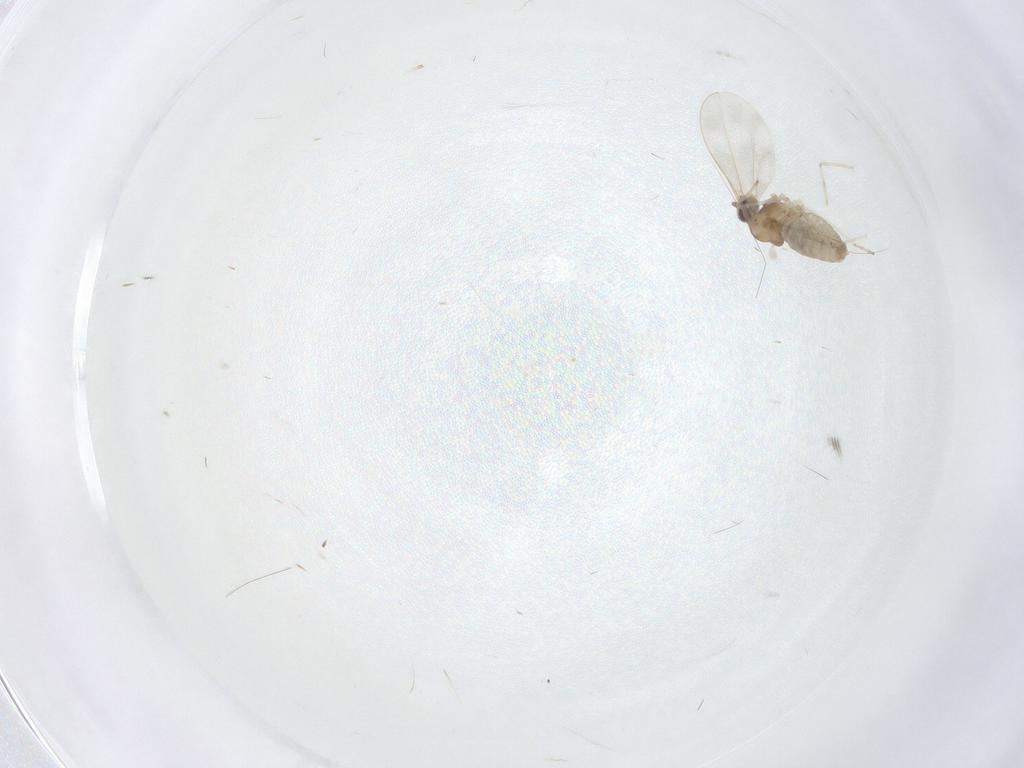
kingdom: Animalia
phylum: Arthropoda
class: Insecta
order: Diptera
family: Cecidomyiidae
